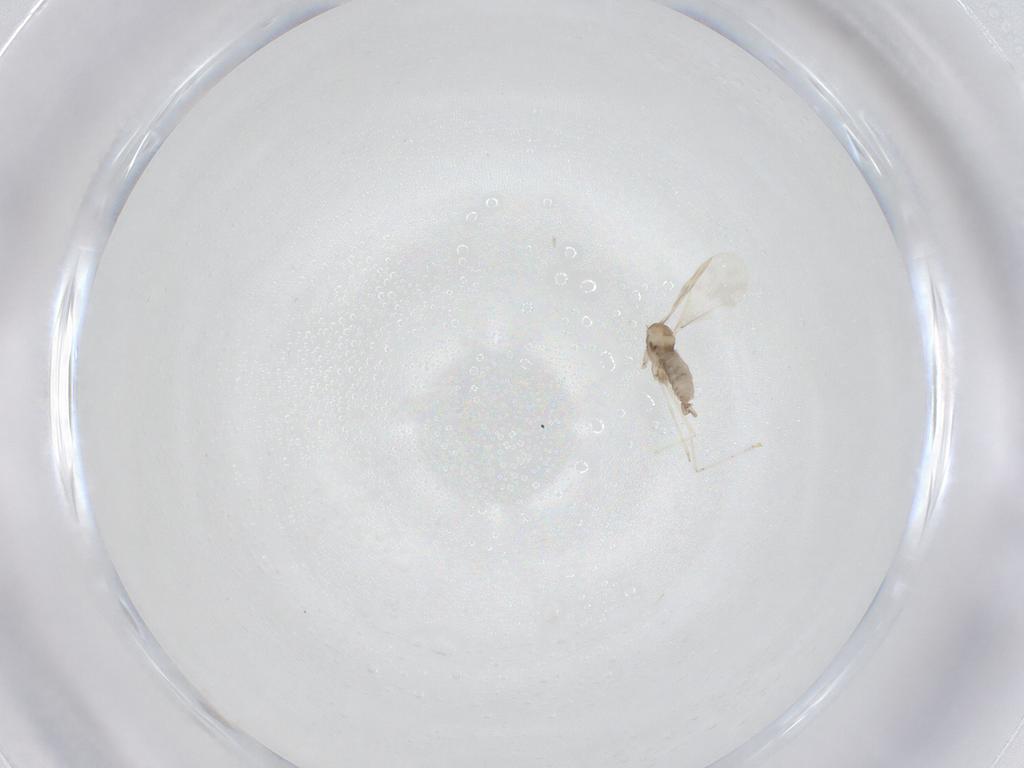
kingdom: Animalia
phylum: Arthropoda
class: Insecta
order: Diptera
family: Cecidomyiidae
